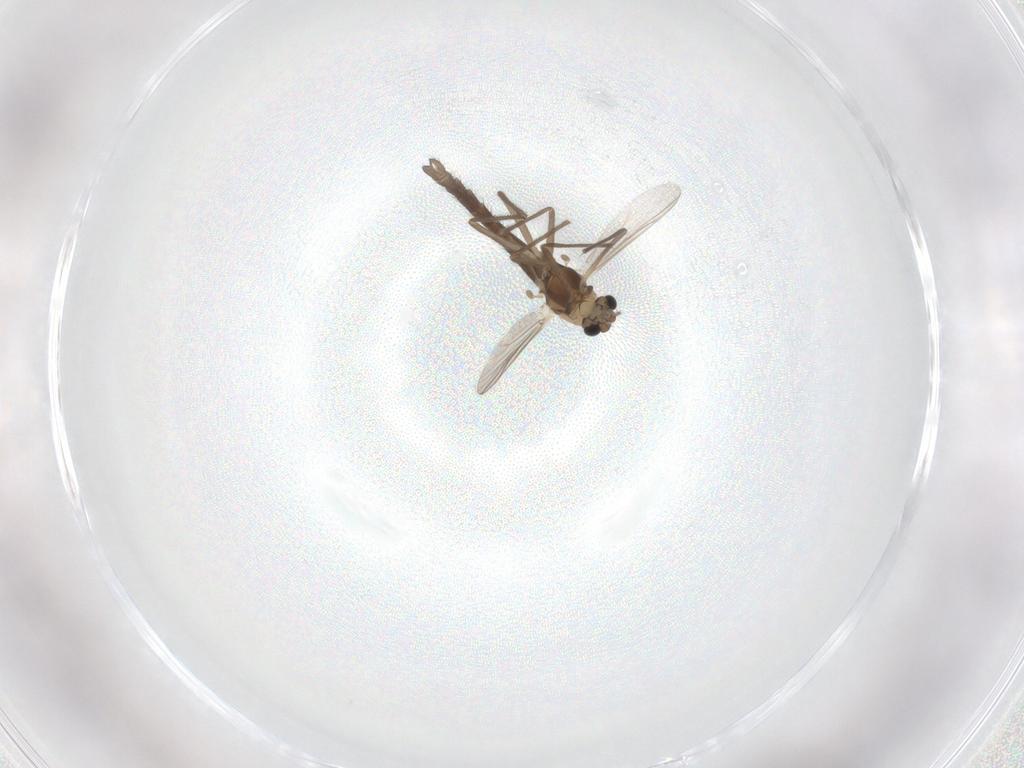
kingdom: Animalia
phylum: Arthropoda
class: Insecta
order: Diptera
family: Chironomidae
